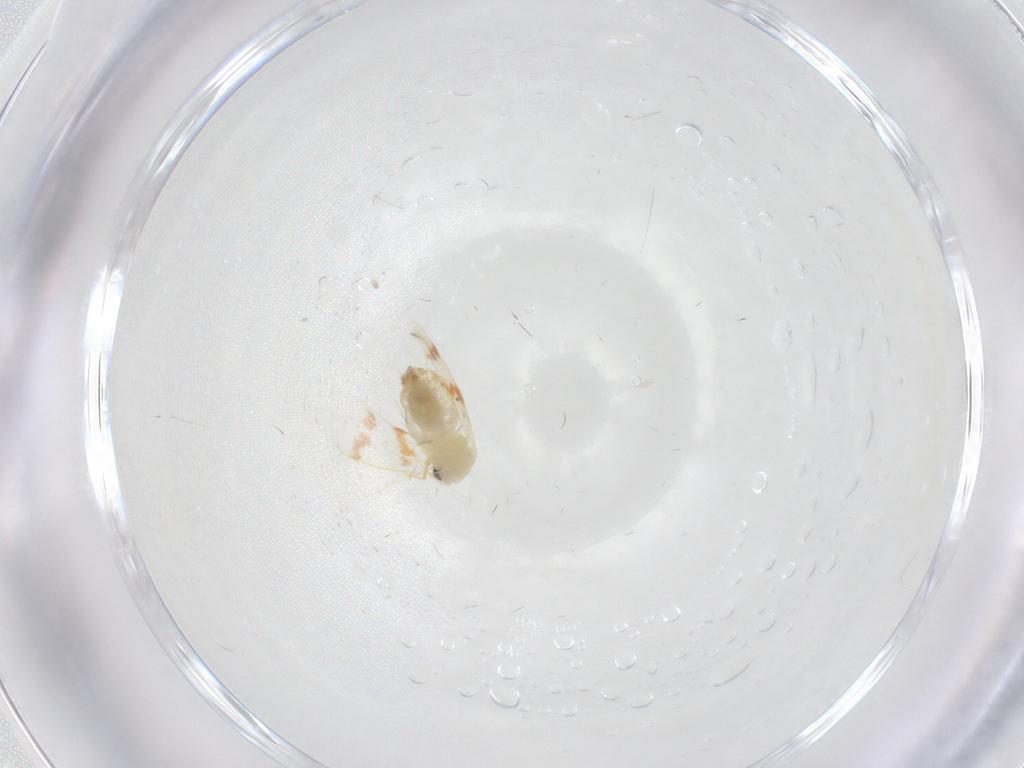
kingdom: Animalia
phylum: Arthropoda
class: Insecta
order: Hemiptera
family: Aleyrodidae
